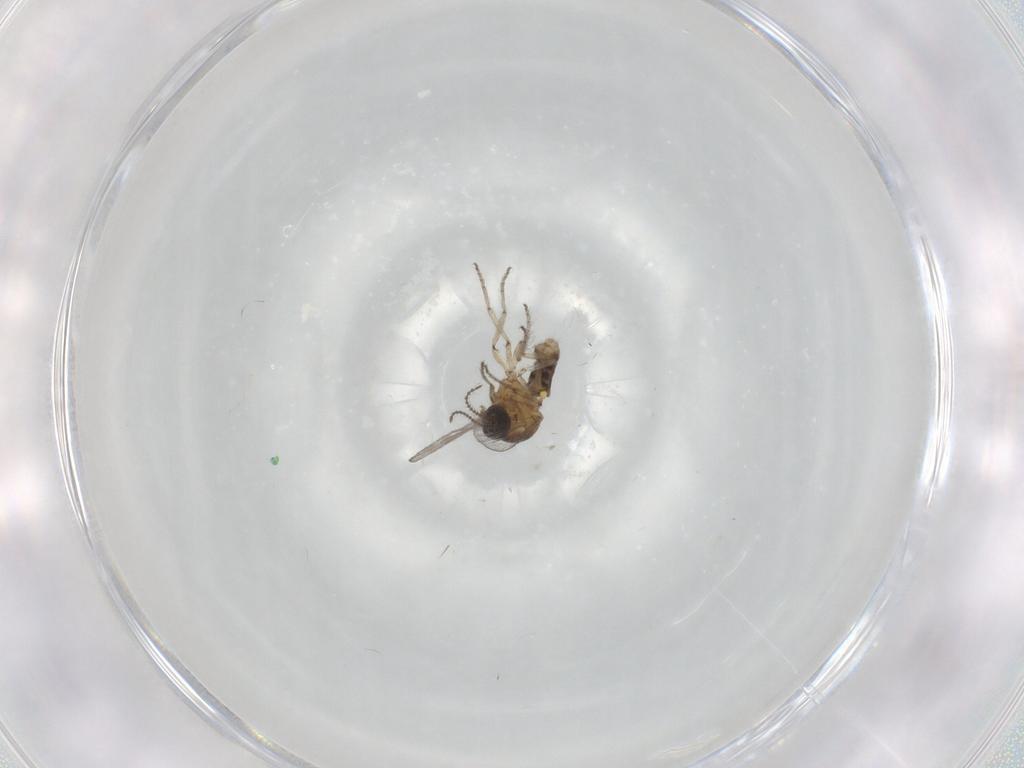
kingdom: Animalia
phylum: Arthropoda
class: Insecta
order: Diptera
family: Ceratopogonidae
